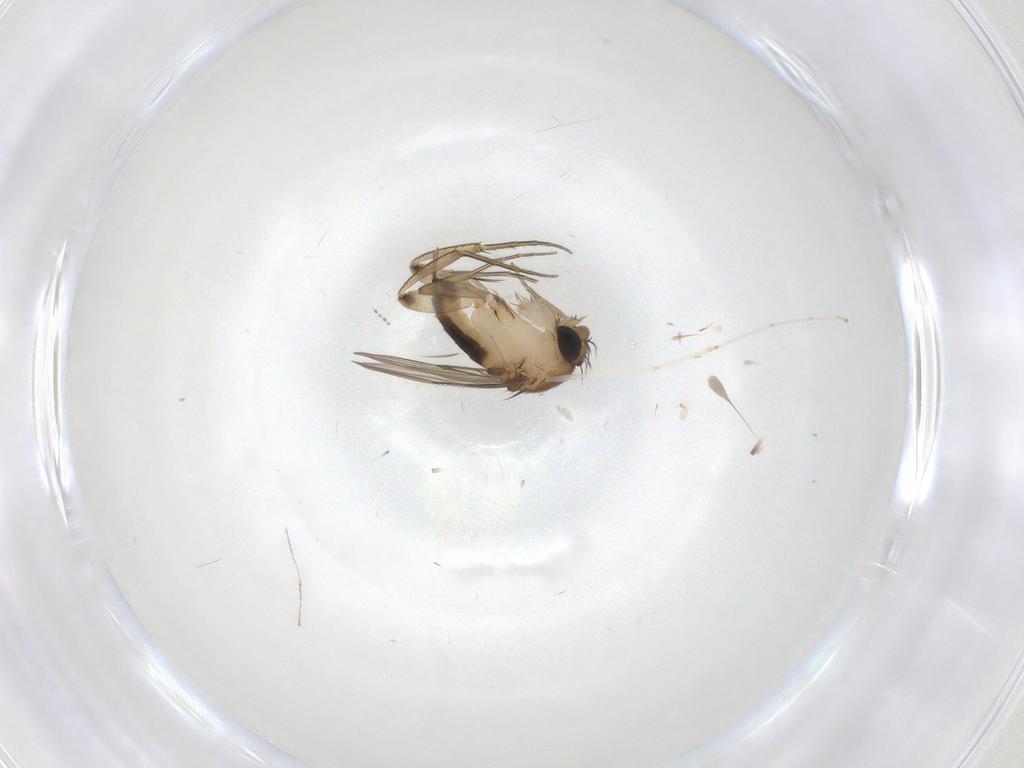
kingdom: Animalia
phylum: Arthropoda
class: Insecta
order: Diptera
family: Phoridae
